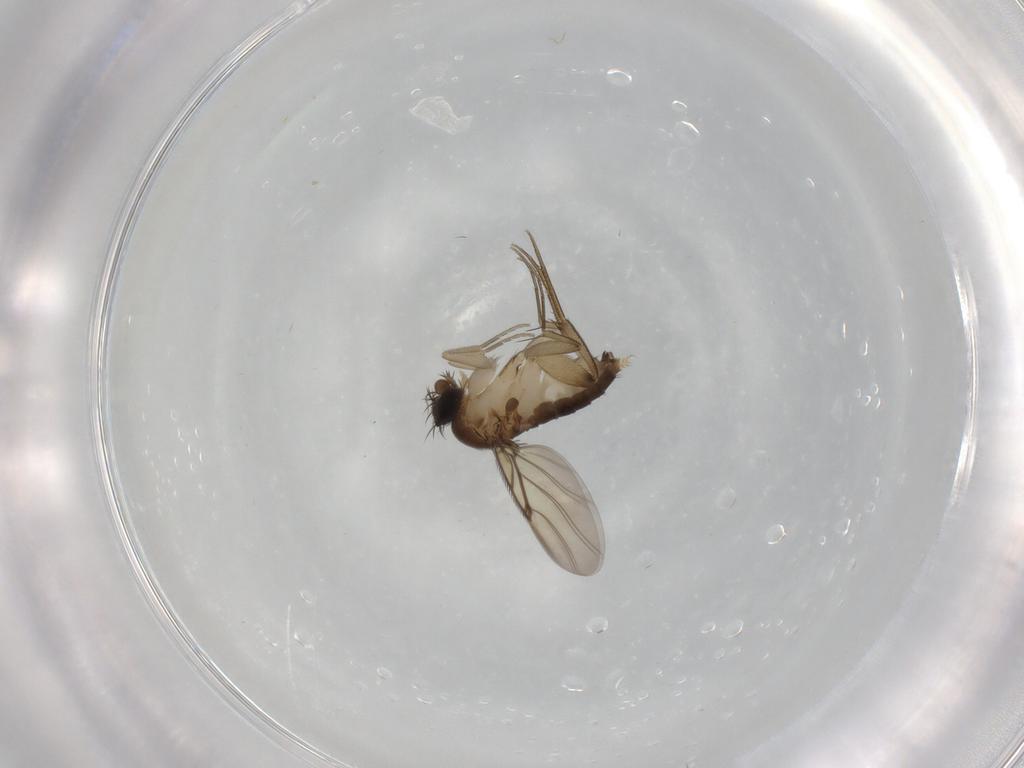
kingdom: Animalia
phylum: Arthropoda
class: Insecta
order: Diptera
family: Phoridae
